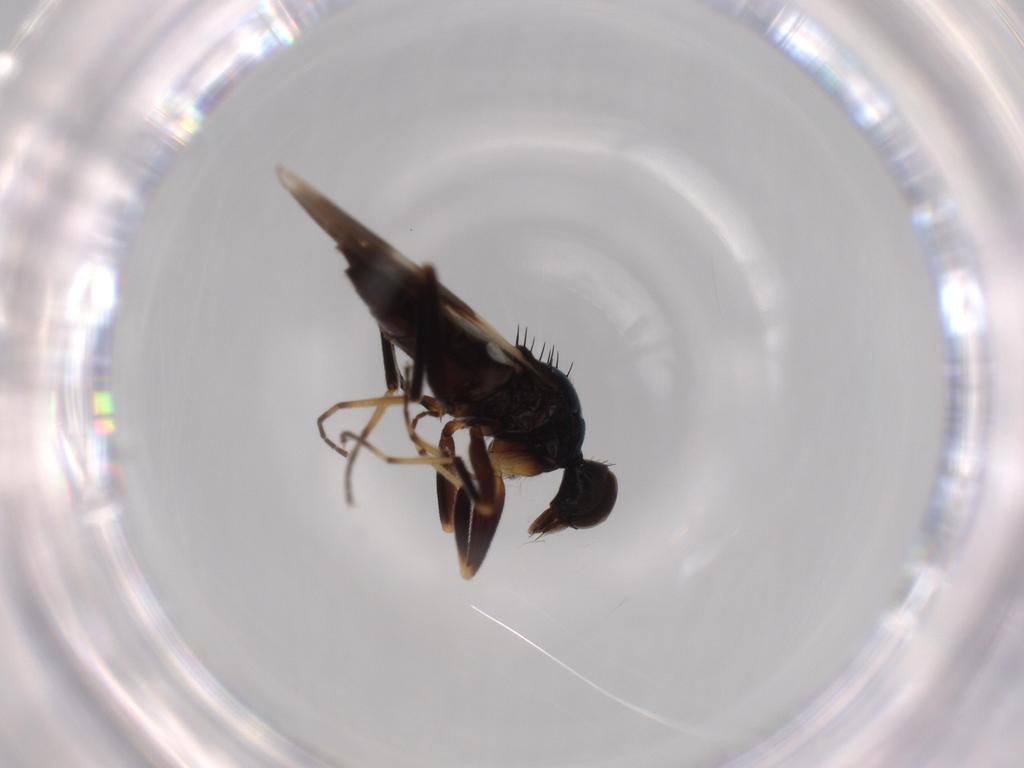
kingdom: Animalia
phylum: Arthropoda
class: Insecta
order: Diptera
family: Hybotidae
